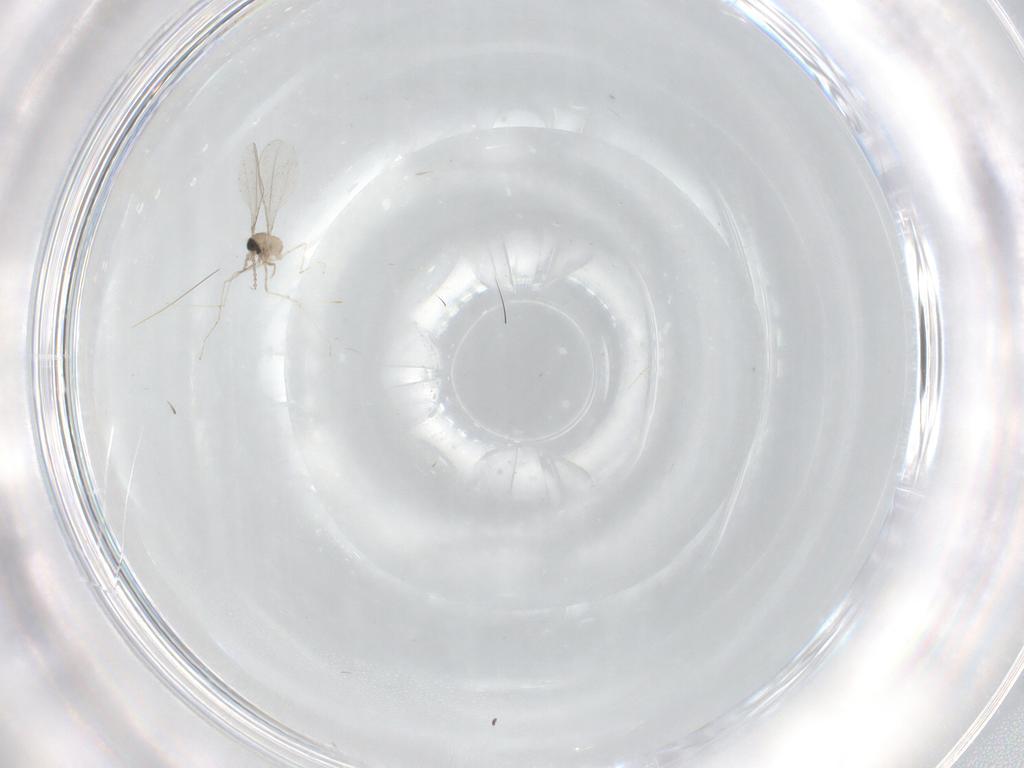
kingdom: Animalia
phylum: Arthropoda
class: Insecta
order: Diptera
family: Cecidomyiidae
